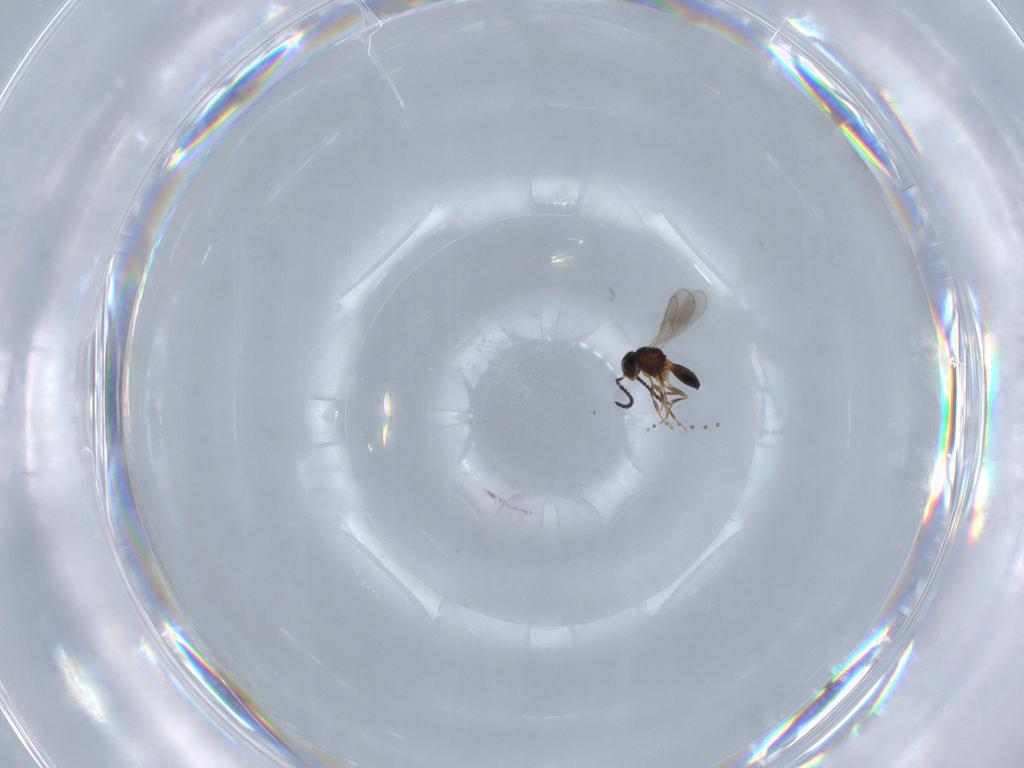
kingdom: Animalia
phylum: Arthropoda
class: Insecta
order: Hymenoptera
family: Scelionidae
